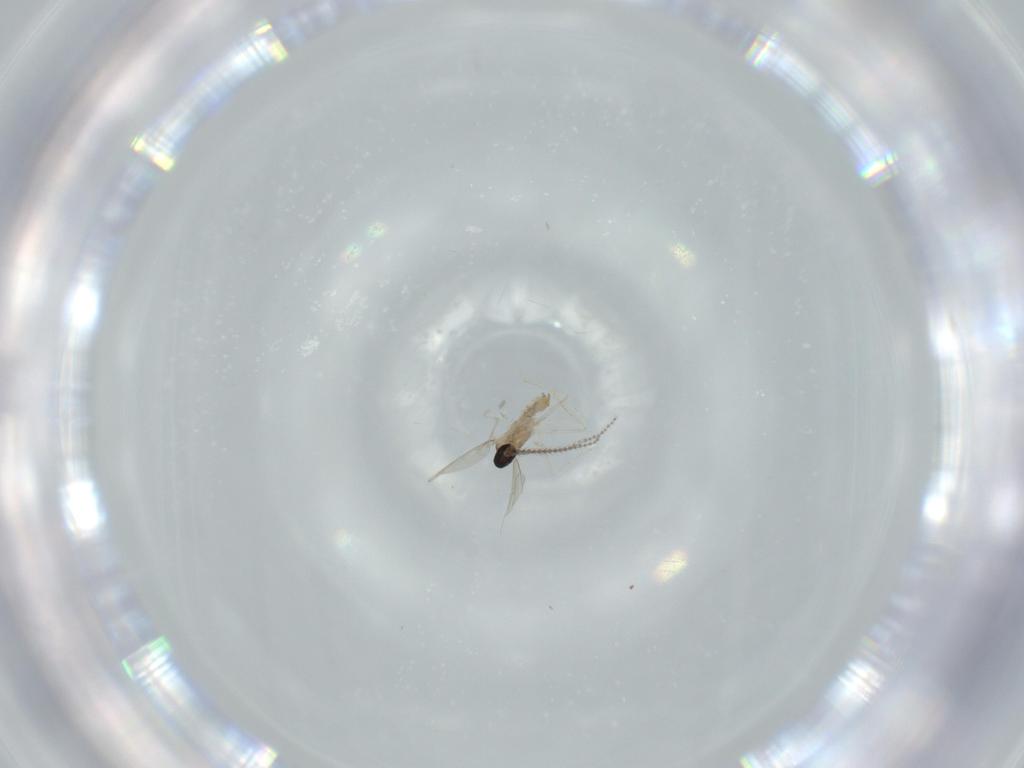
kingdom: Animalia
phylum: Arthropoda
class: Insecta
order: Diptera
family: Cecidomyiidae
